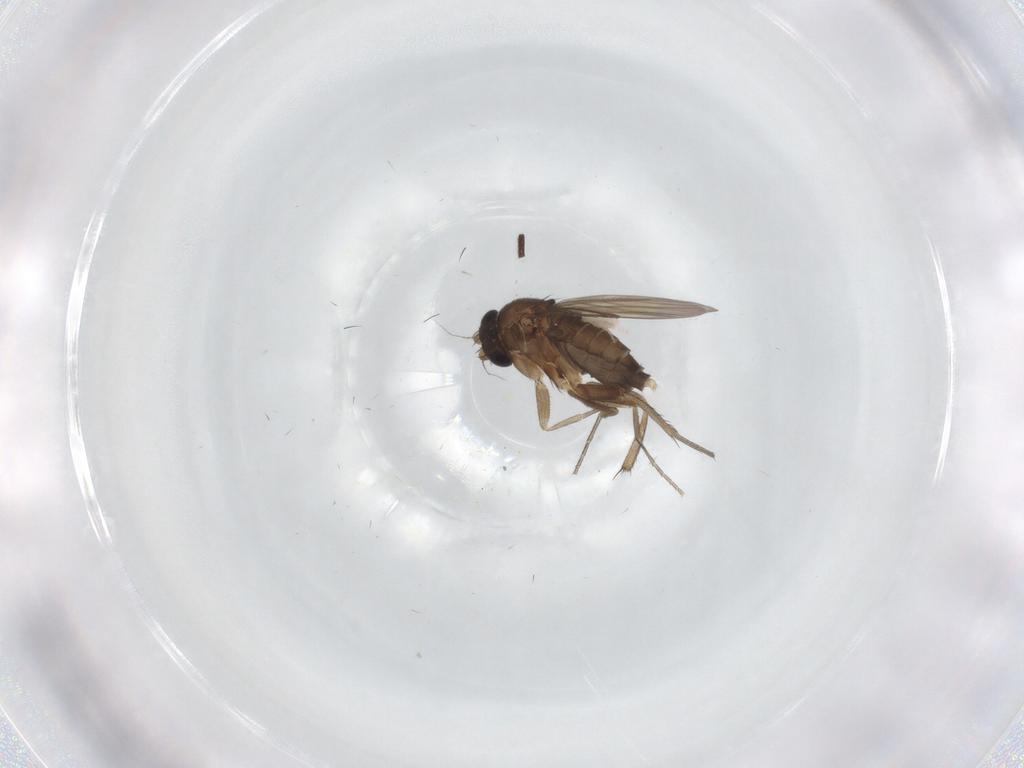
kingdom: Animalia
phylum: Arthropoda
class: Insecta
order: Diptera
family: Phoridae
